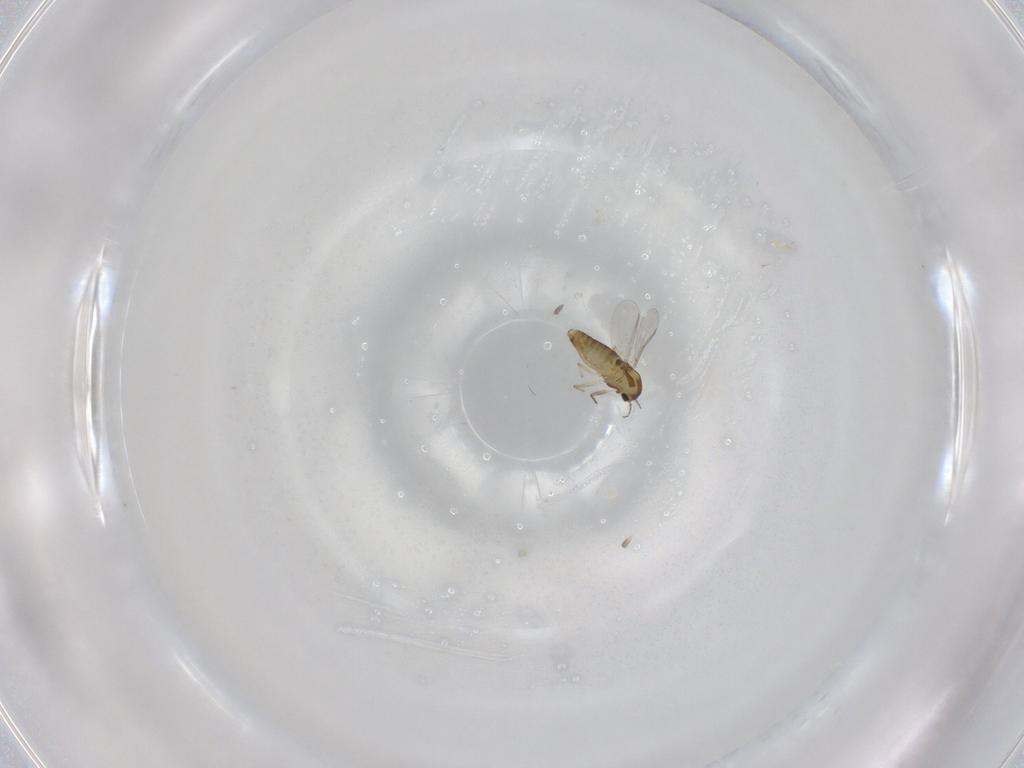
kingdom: Animalia
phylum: Arthropoda
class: Insecta
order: Diptera
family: Chironomidae
